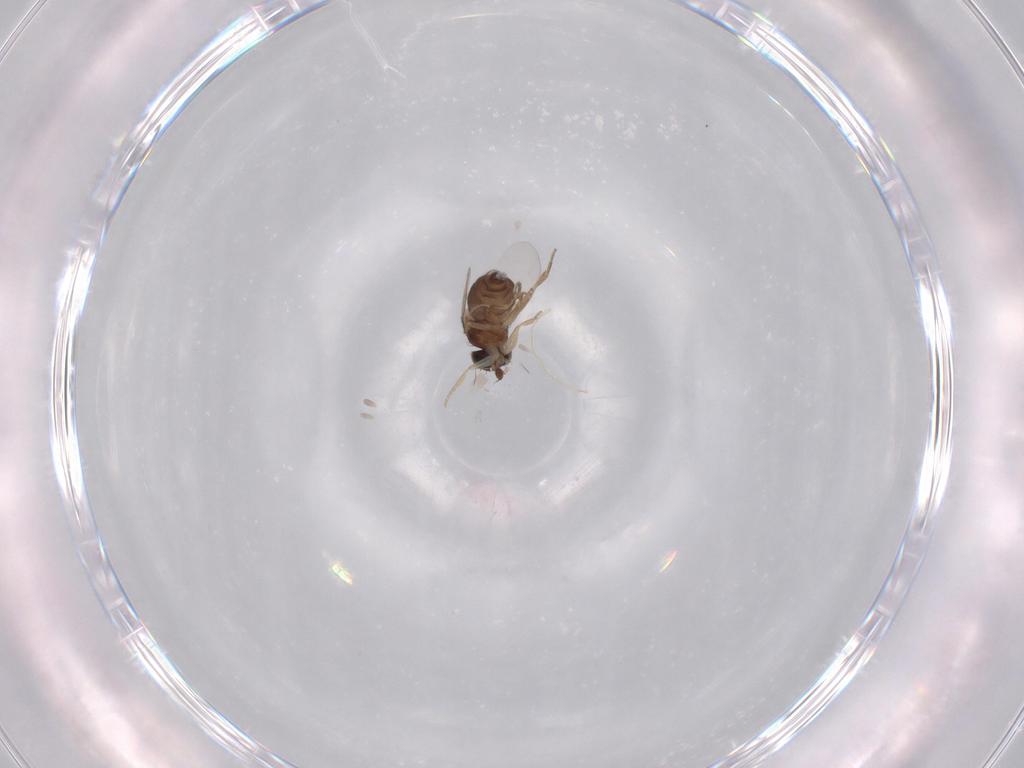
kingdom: Animalia
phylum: Arthropoda
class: Insecta
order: Diptera
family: Phoridae
